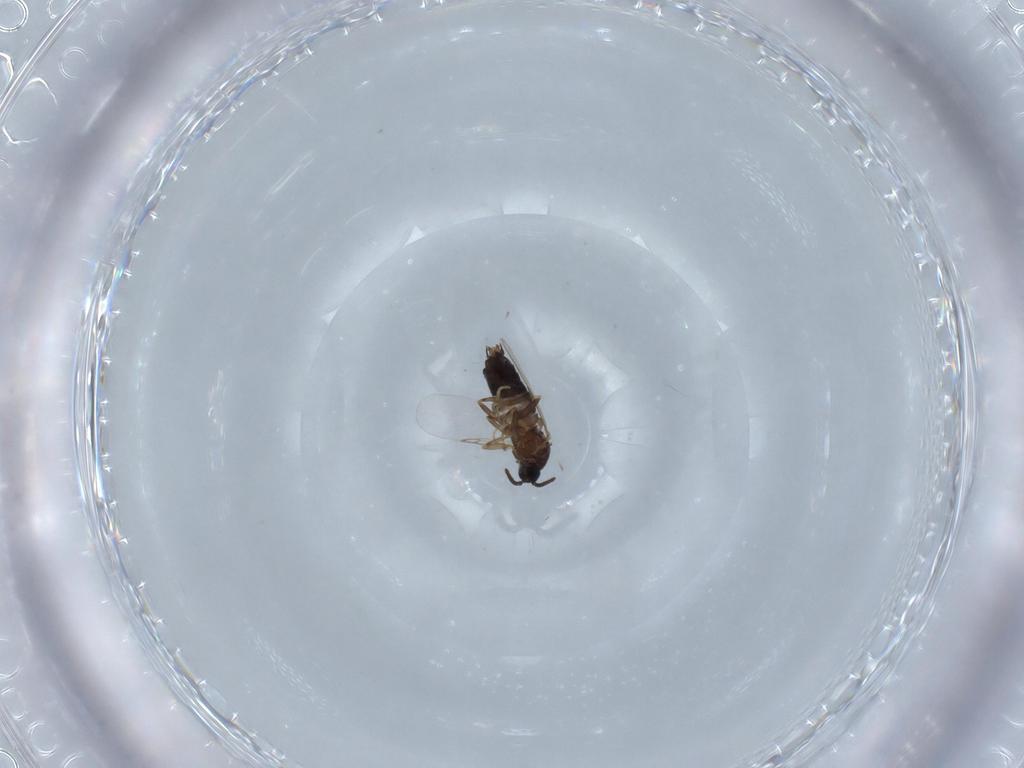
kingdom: Animalia
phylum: Arthropoda
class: Insecta
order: Diptera
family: Scatopsidae
